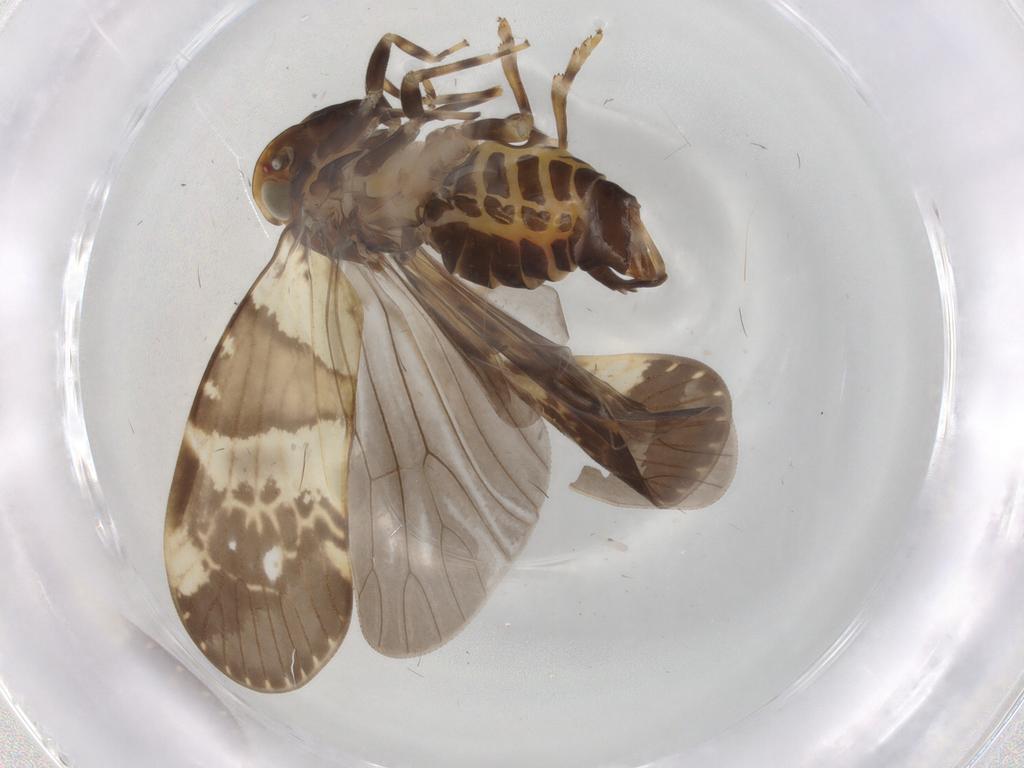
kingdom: Animalia
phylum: Arthropoda
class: Insecta
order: Hemiptera
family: Cixiidae
